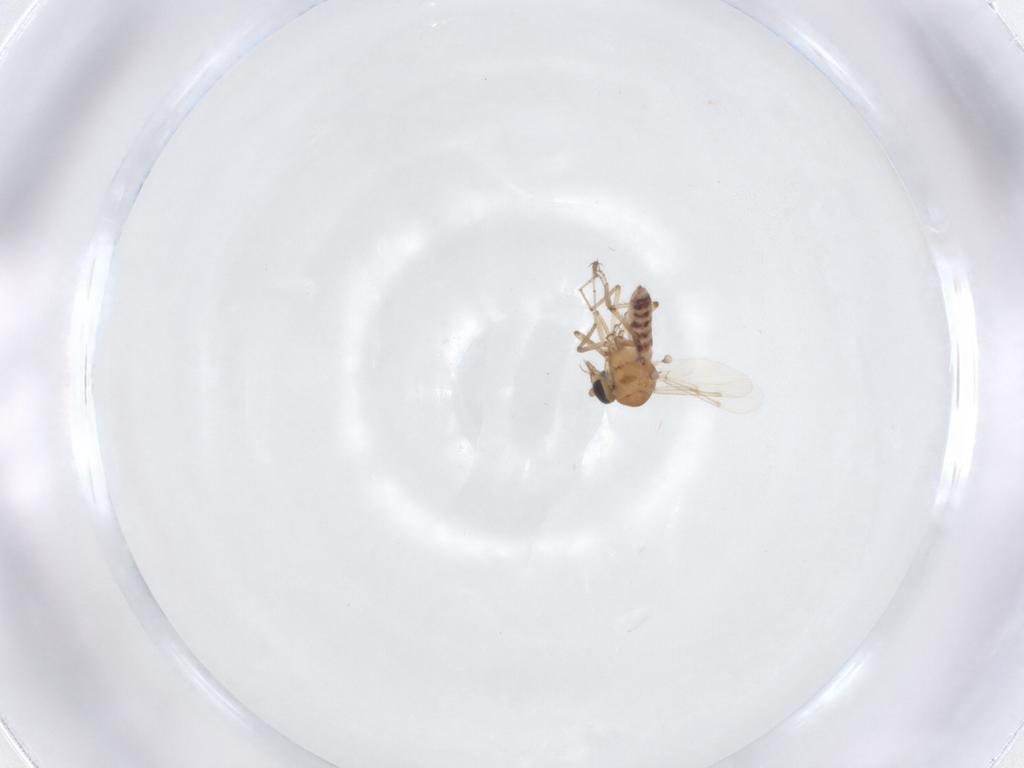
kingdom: Animalia
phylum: Arthropoda
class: Insecta
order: Diptera
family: Ceratopogonidae
